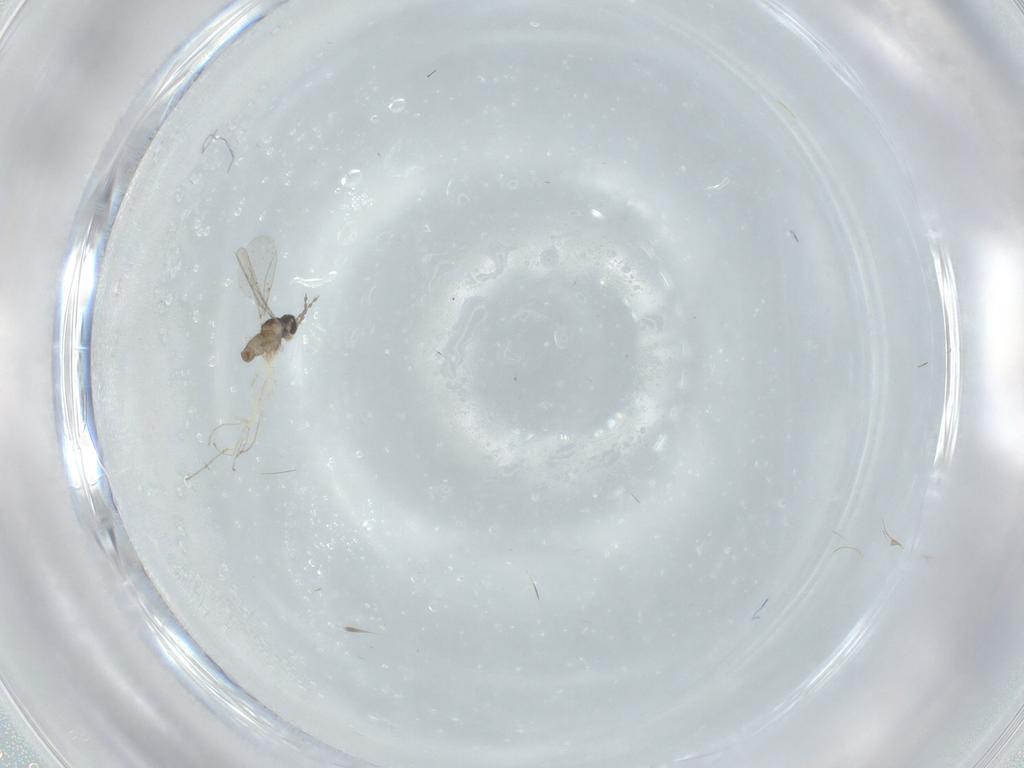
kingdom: Animalia
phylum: Arthropoda
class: Insecta
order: Diptera
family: Cecidomyiidae
